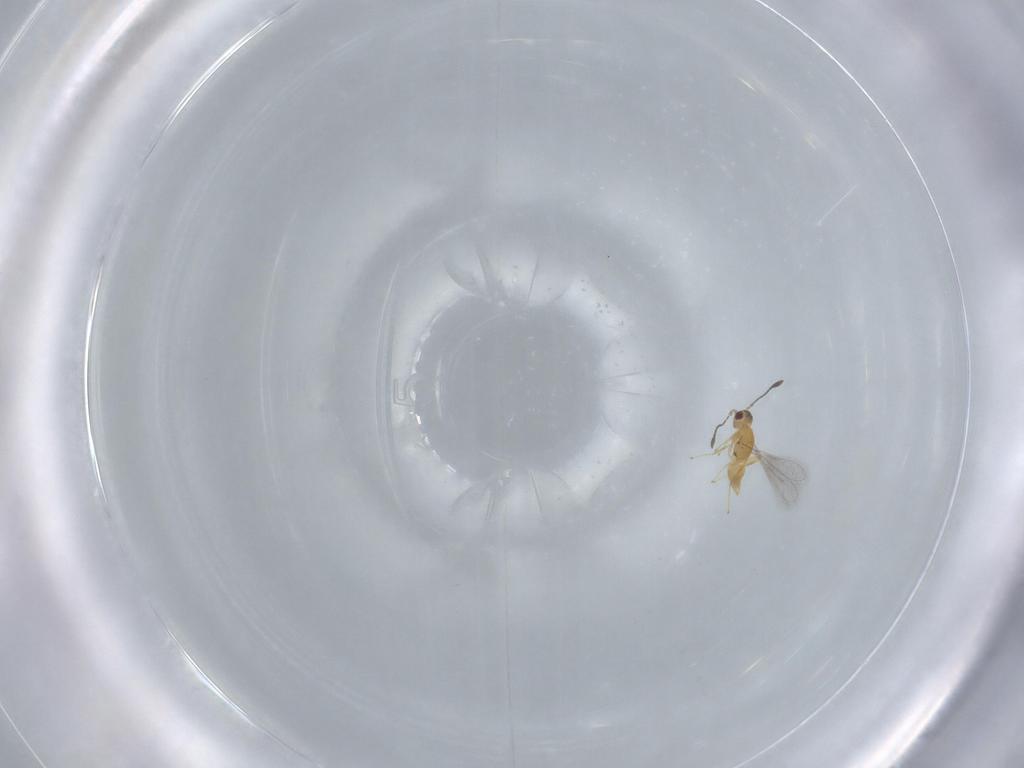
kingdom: Animalia
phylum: Arthropoda
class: Insecta
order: Hymenoptera
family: Mymaridae
